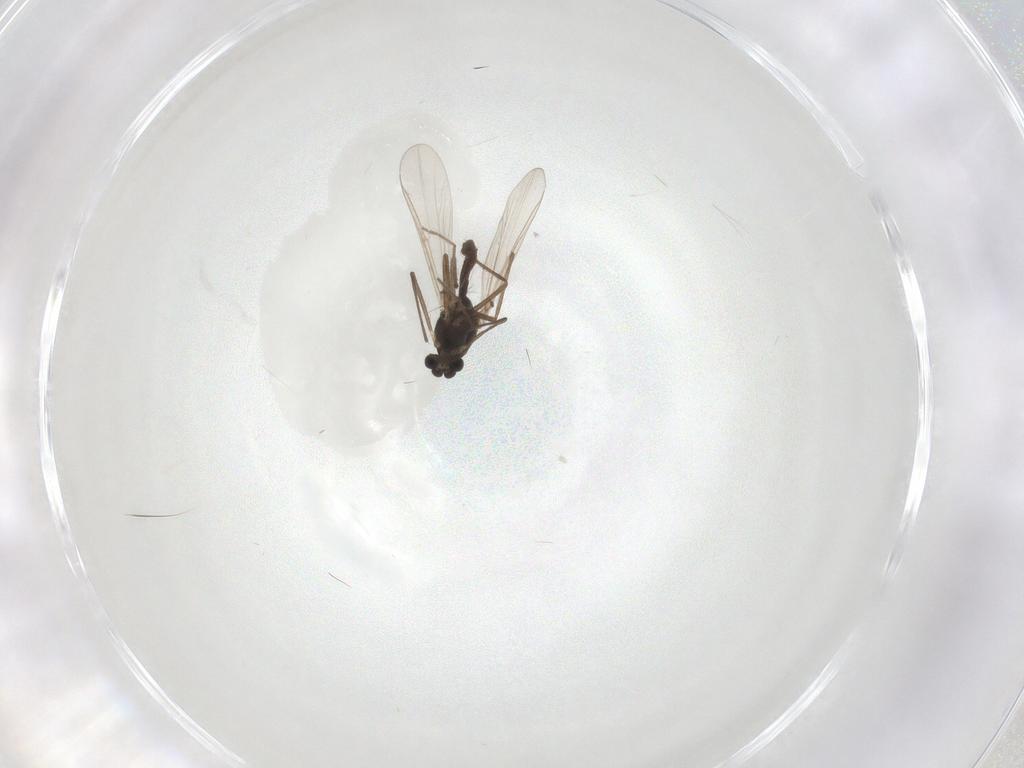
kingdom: Animalia
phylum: Arthropoda
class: Insecta
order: Diptera
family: Chironomidae
